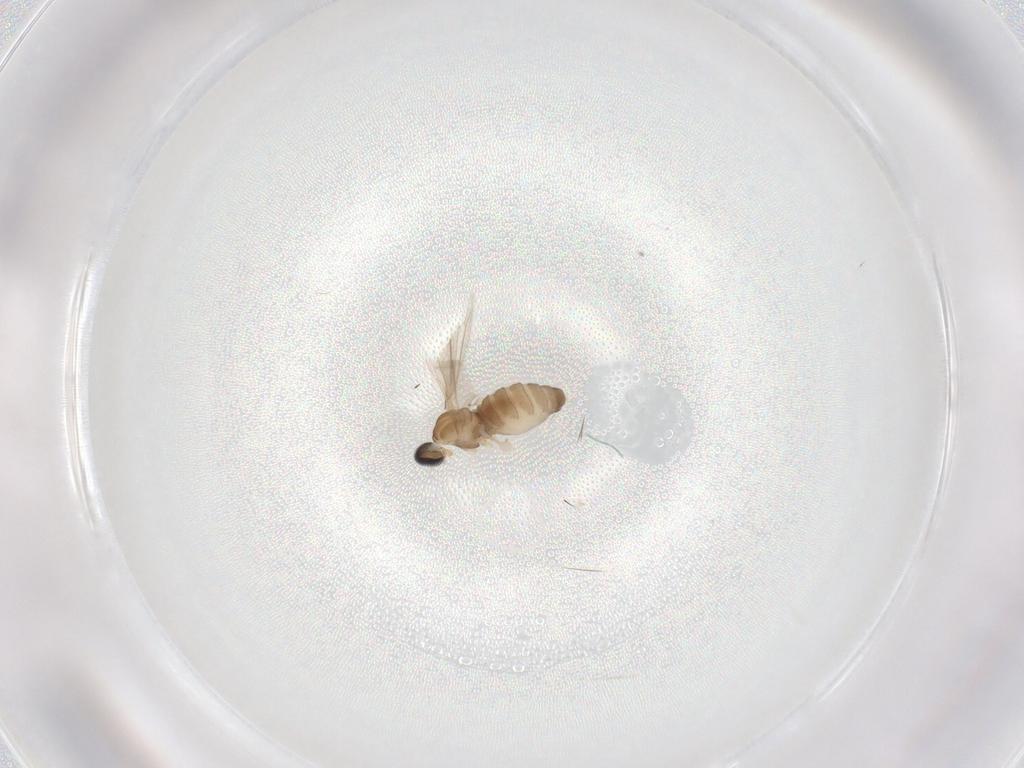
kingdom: Animalia
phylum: Arthropoda
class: Insecta
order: Diptera
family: Cecidomyiidae
